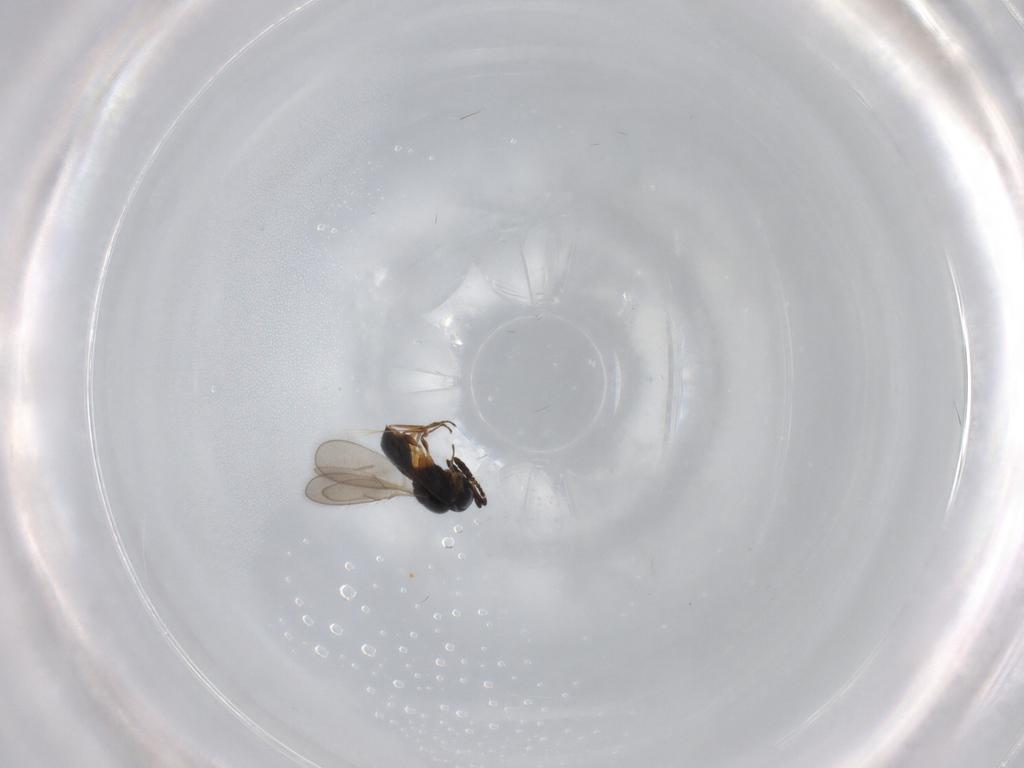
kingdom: Animalia
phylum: Arthropoda
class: Insecta
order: Hymenoptera
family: Scelionidae
